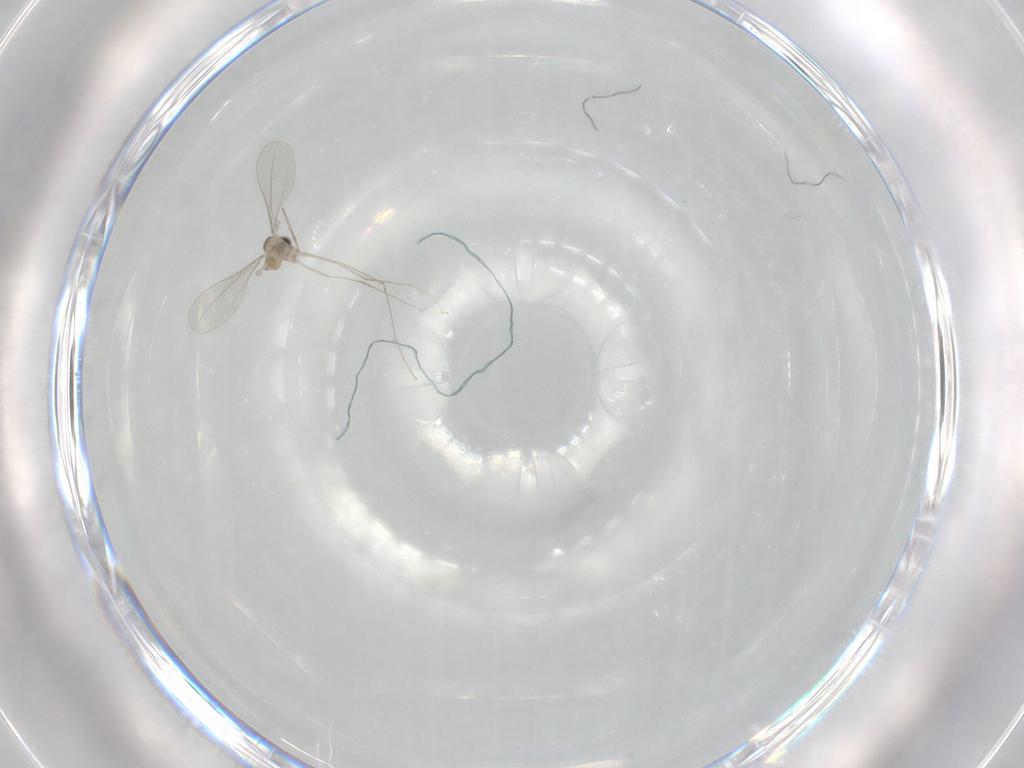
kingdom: Animalia
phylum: Arthropoda
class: Insecta
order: Diptera
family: Cecidomyiidae
